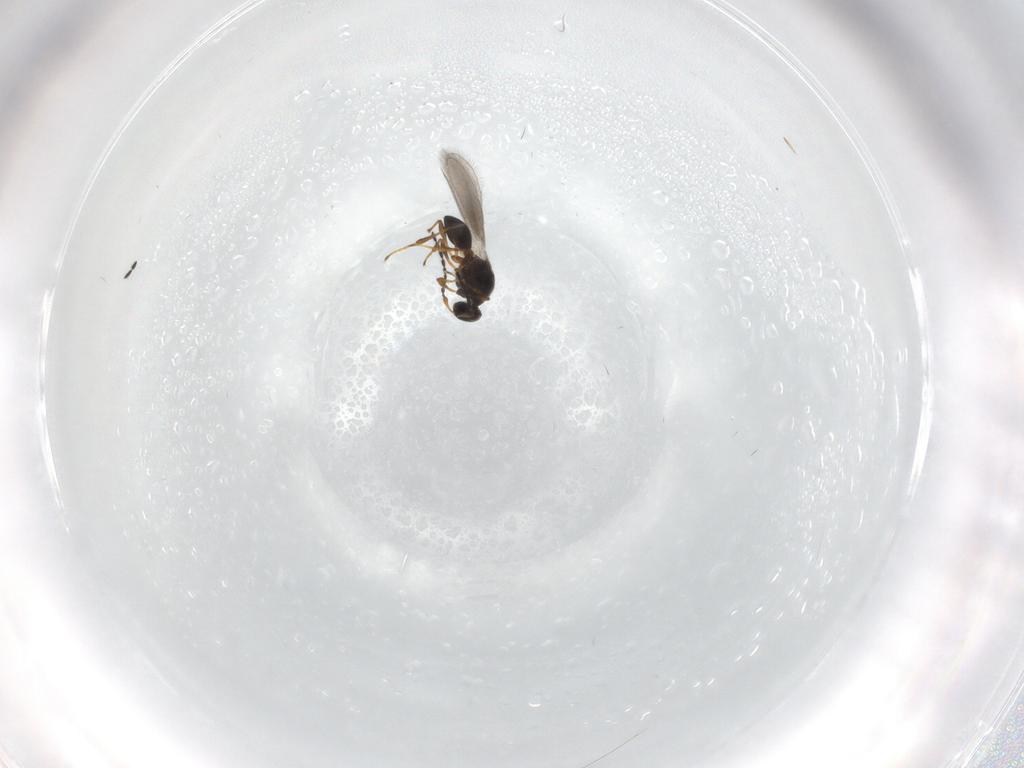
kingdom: Animalia
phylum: Arthropoda
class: Insecta
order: Hymenoptera
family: Platygastridae
